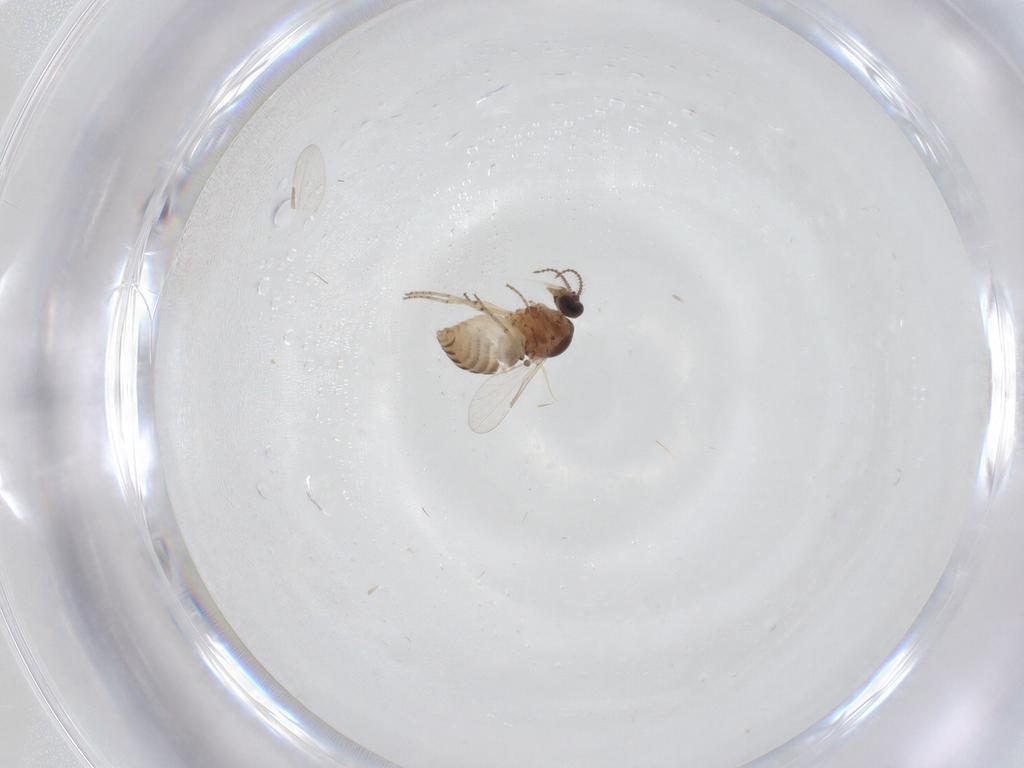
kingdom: Animalia
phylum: Arthropoda
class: Insecta
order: Diptera
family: Ceratopogonidae
